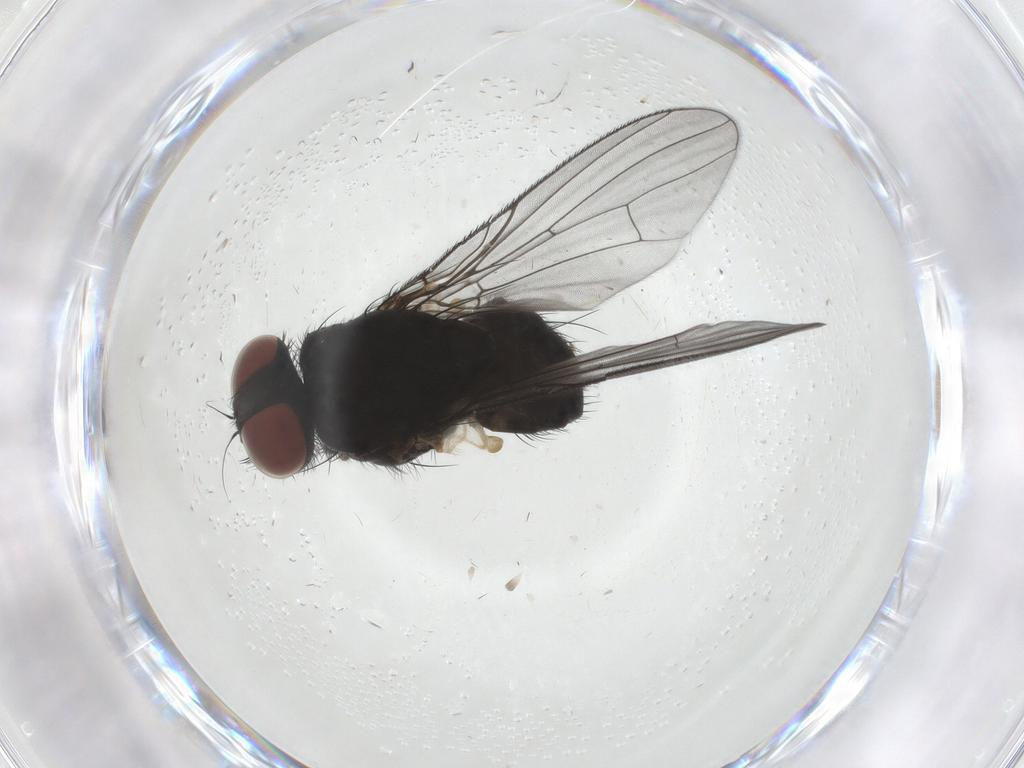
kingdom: Animalia
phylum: Arthropoda
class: Insecta
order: Diptera
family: Muscidae
